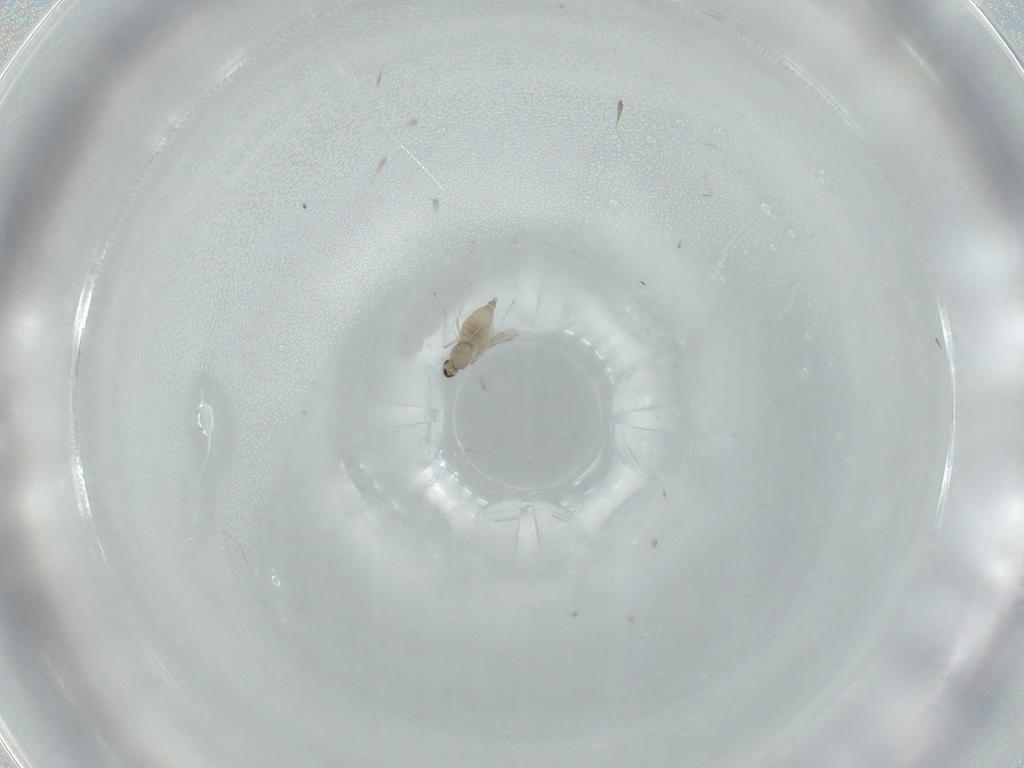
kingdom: Animalia
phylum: Arthropoda
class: Insecta
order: Diptera
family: Cecidomyiidae
